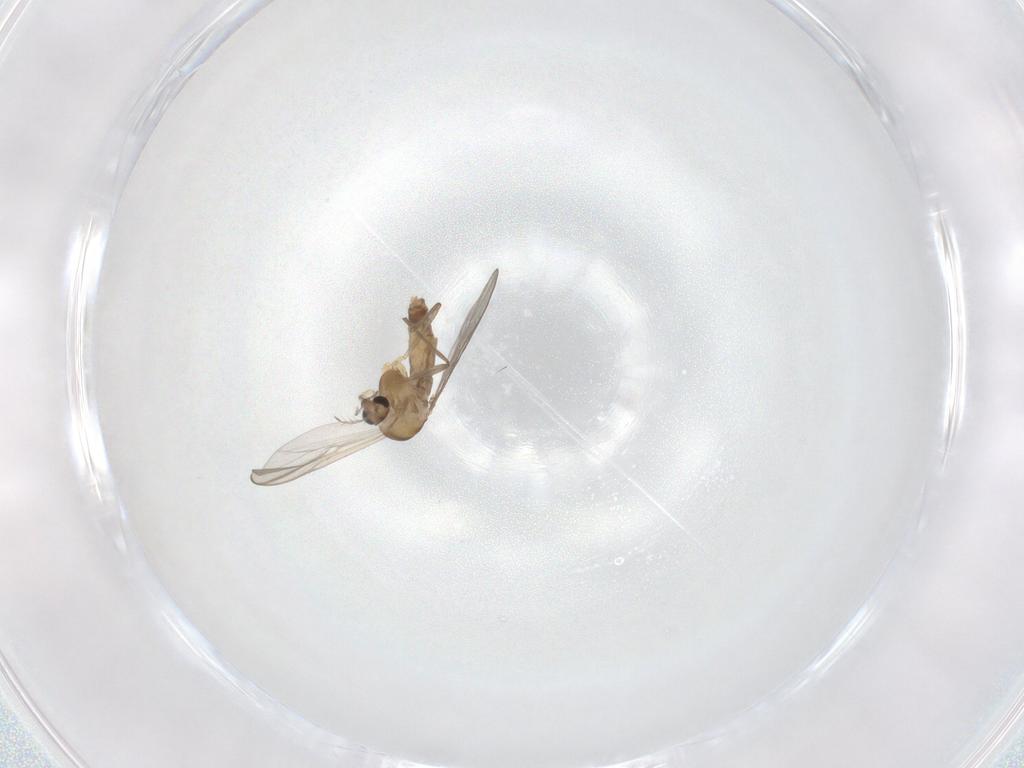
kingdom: Animalia
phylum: Arthropoda
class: Insecta
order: Diptera
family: Chironomidae
